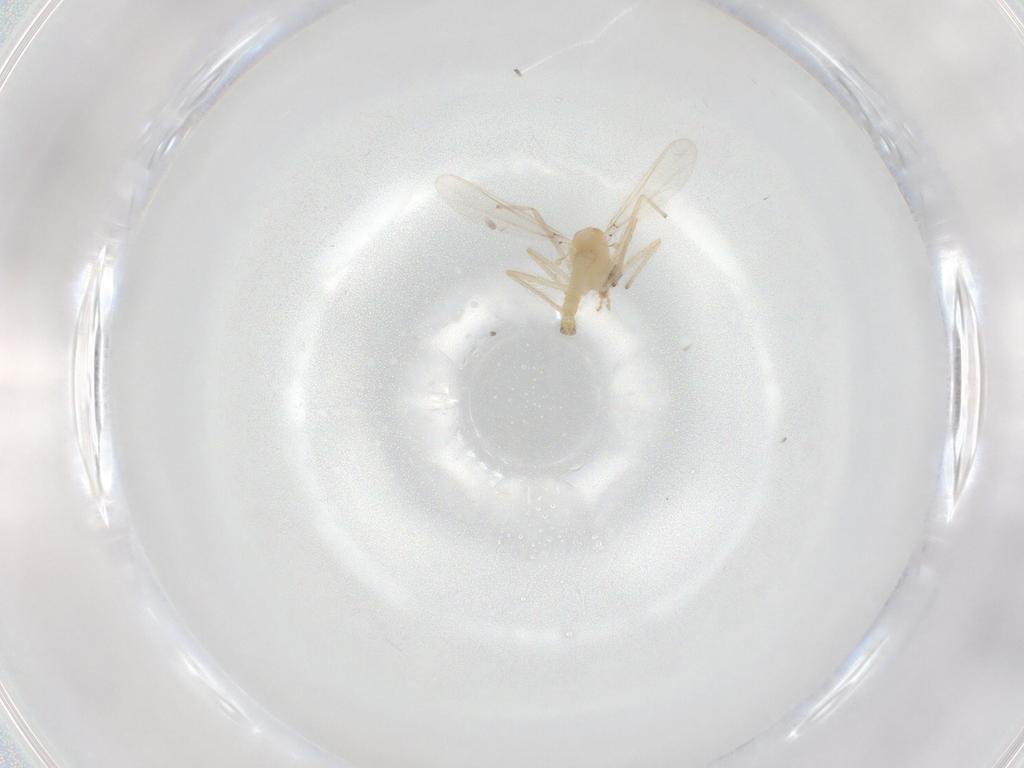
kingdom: Animalia
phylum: Arthropoda
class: Insecta
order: Diptera
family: Chironomidae
